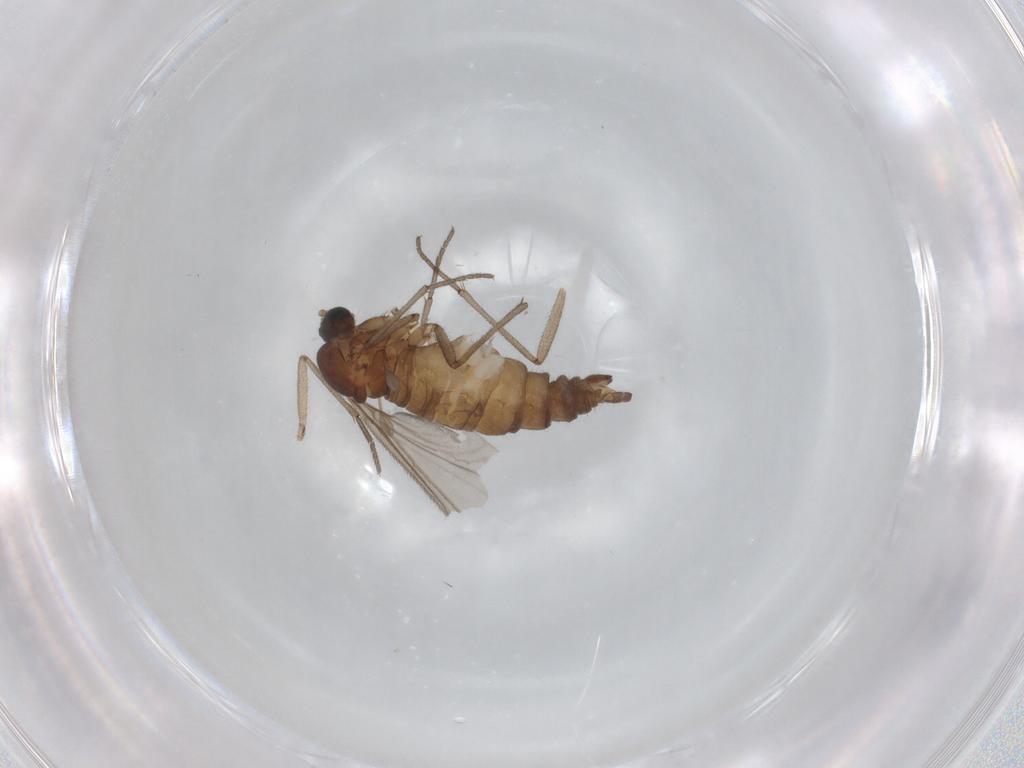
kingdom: Animalia
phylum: Arthropoda
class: Insecta
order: Diptera
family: Sciaridae
